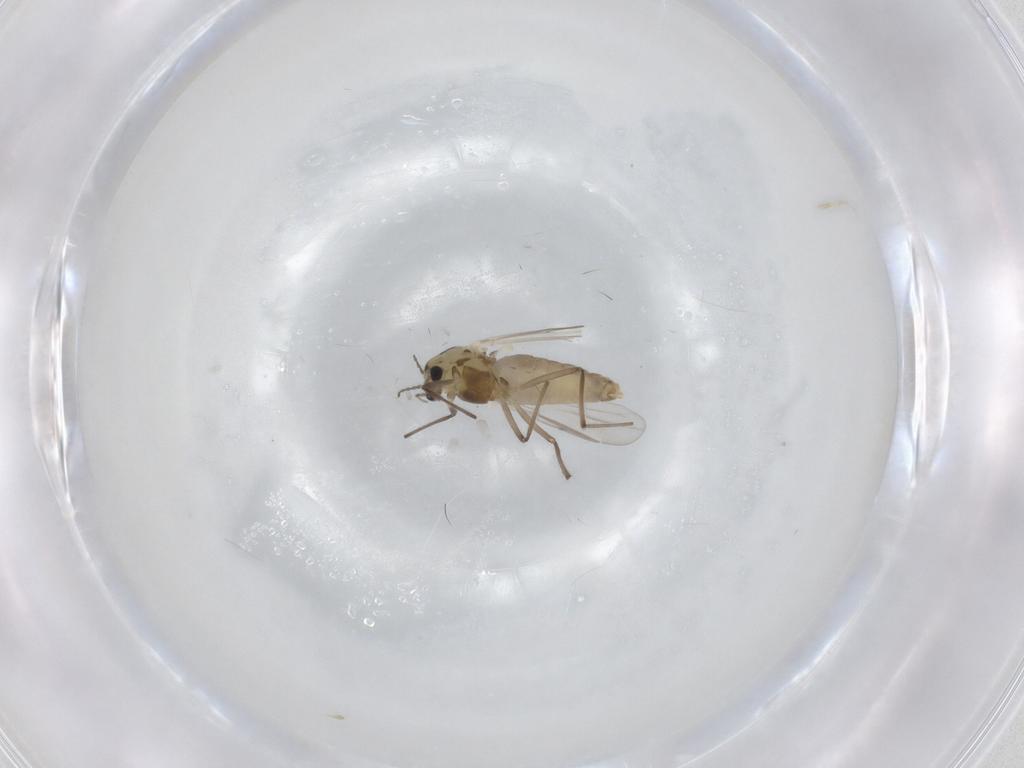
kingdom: Animalia
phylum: Arthropoda
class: Insecta
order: Diptera
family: Chironomidae
